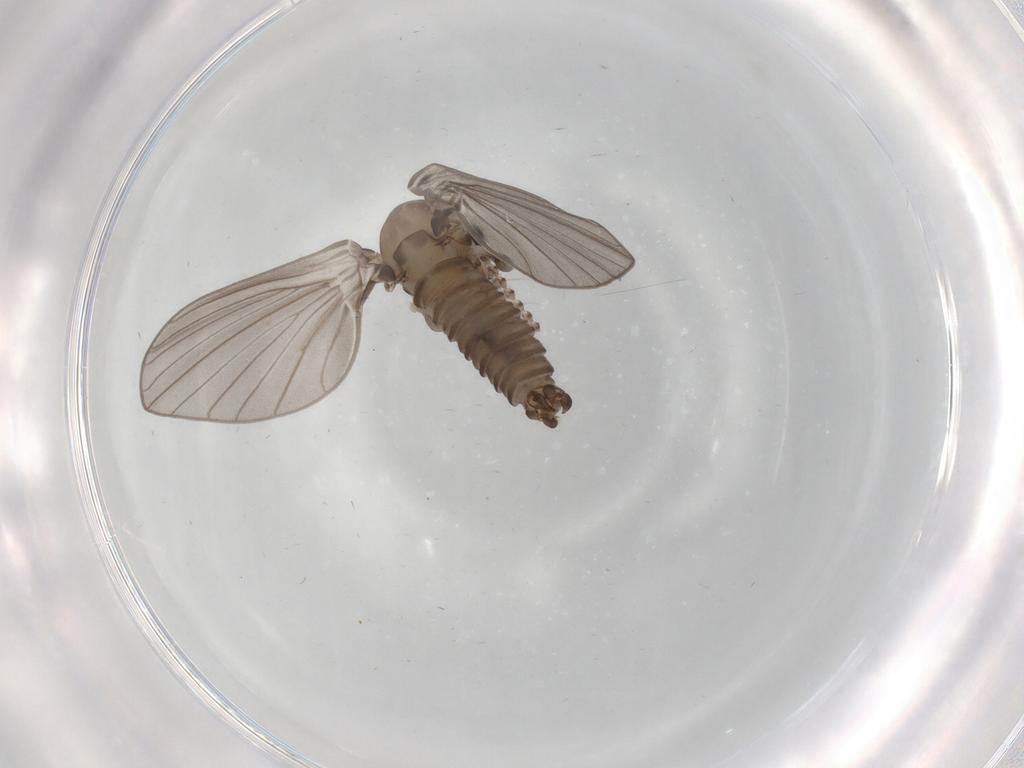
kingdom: Animalia
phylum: Arthropoda
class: Insecta
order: Diptera
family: Psychodidae
